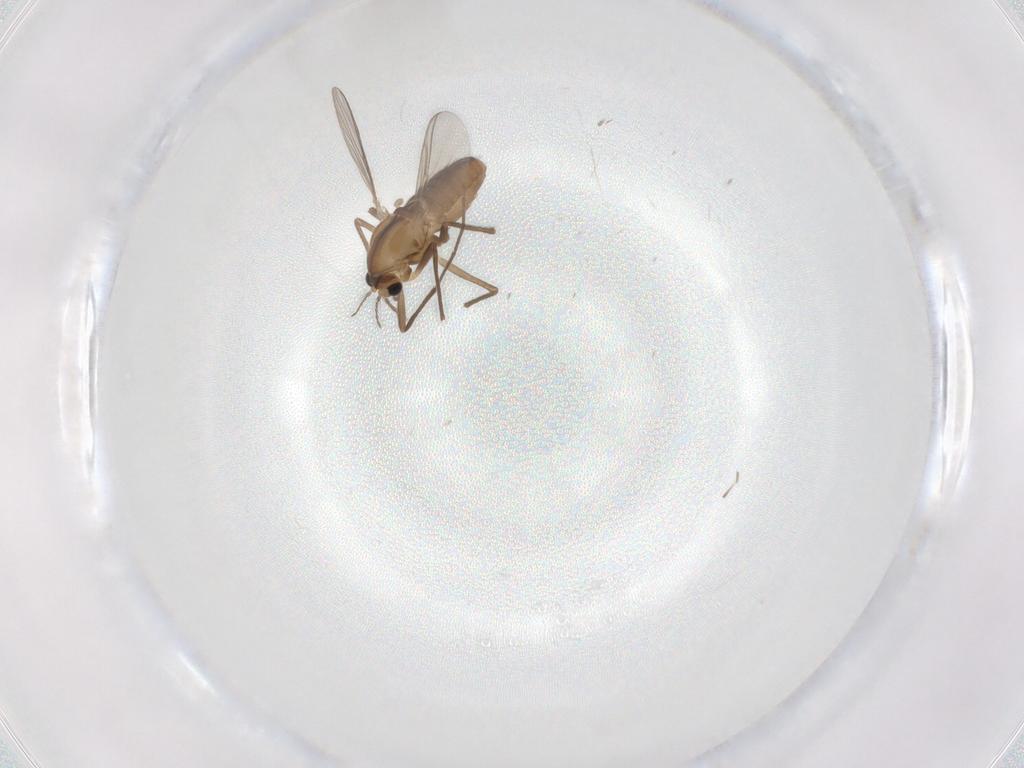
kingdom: Animalia
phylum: Arthropoda
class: Insecta
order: Diptera
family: Chironomidae
